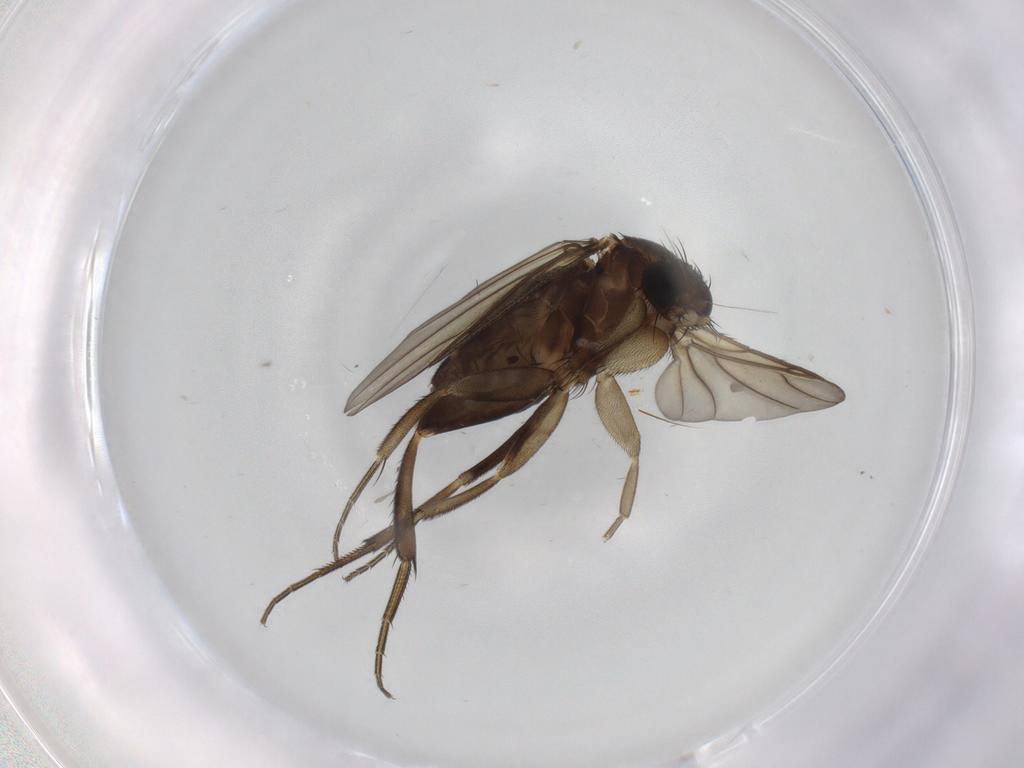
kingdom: Animalia
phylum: Arthropoda
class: Insecta
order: Diptera
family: Phoridae
